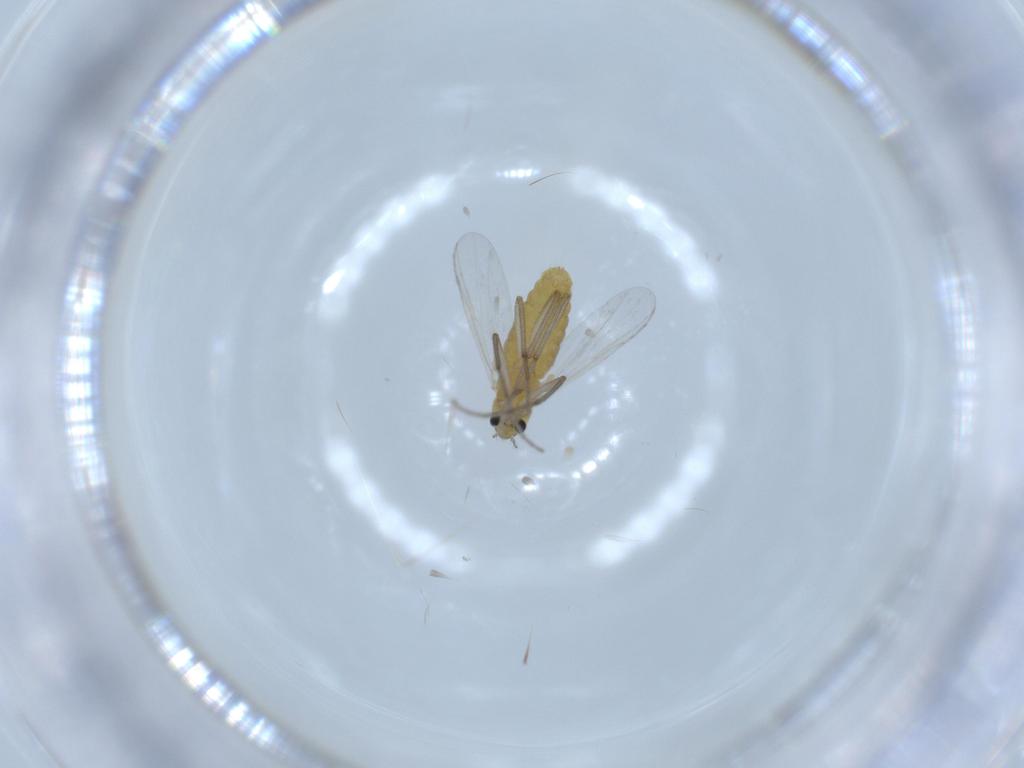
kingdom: Animalia
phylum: Arthropoda
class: Insecta
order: Diptera
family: Chironomidae
